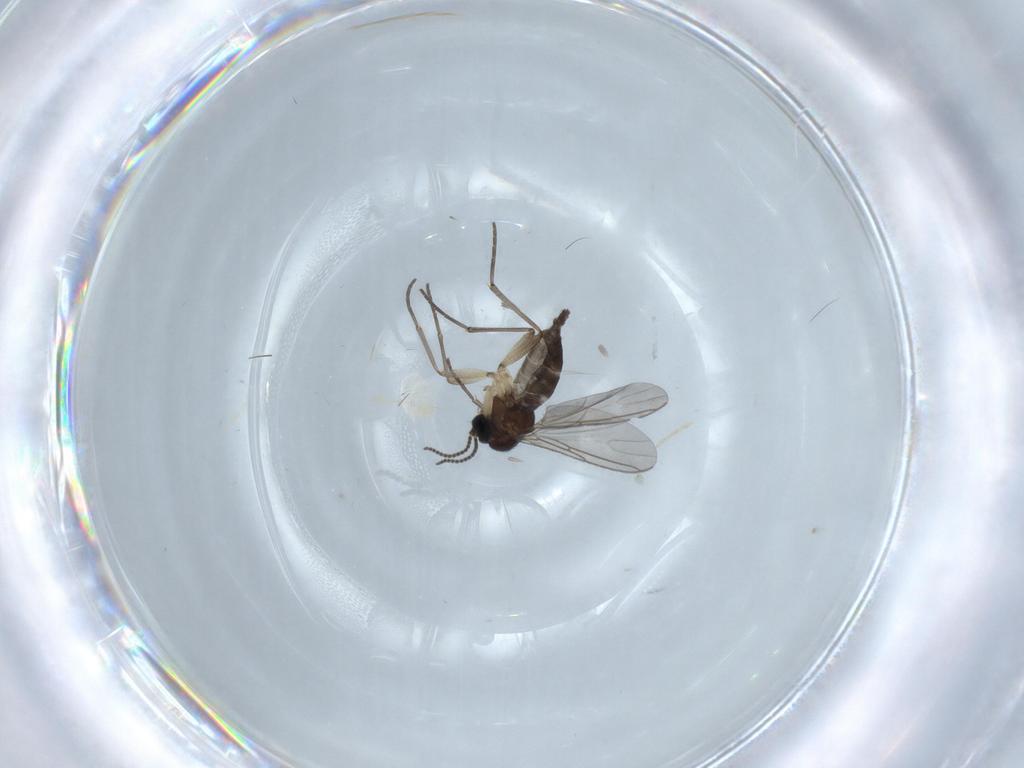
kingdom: Animalia
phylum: Arthropoda
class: Insecta
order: Diptera
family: Sciaridae
